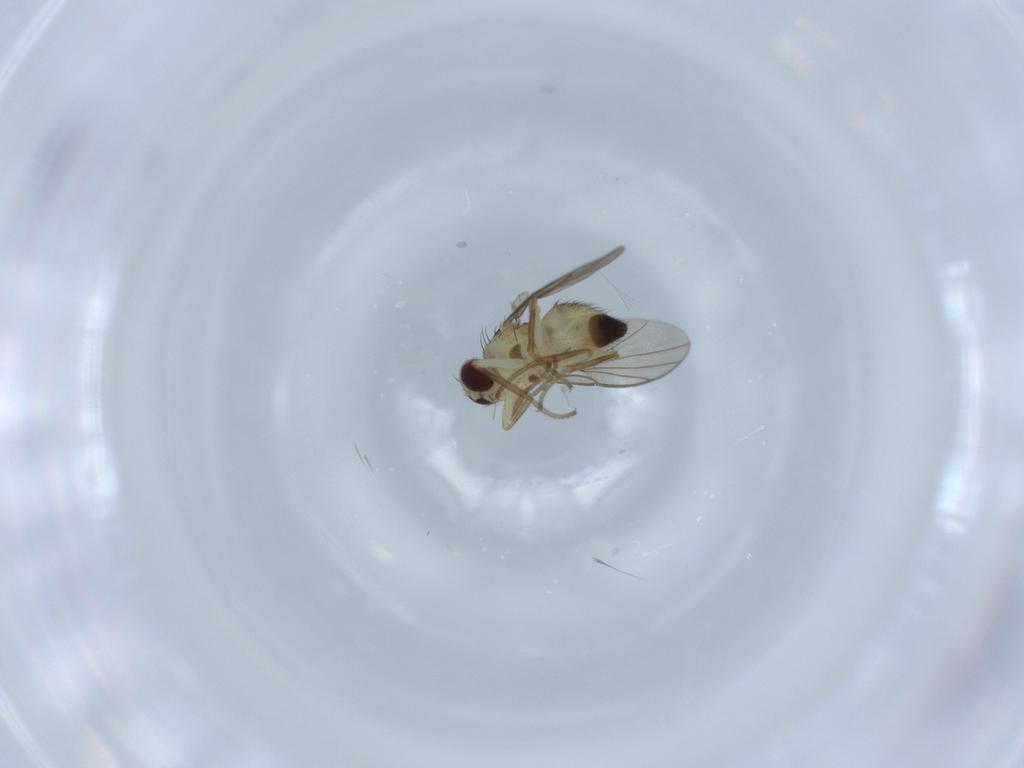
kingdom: Animalia
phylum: Arthropoda
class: Insecta
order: Diptera
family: Agromyzidae
